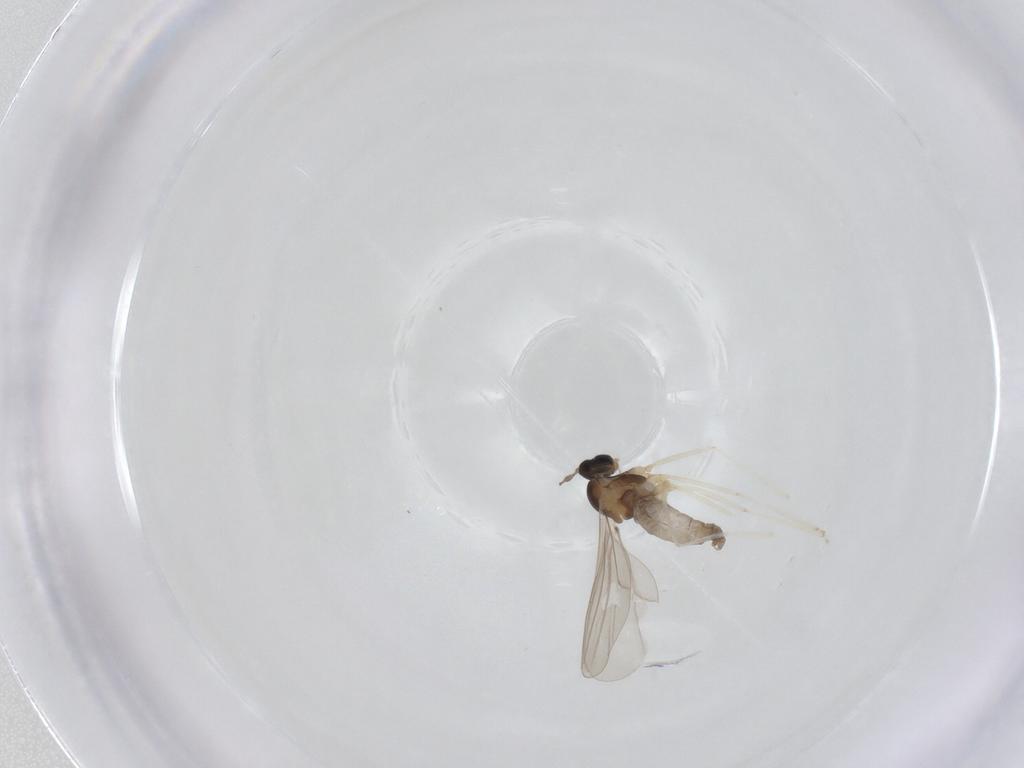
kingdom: Animalia
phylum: Arthropoda
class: Insecta
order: Diptera
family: Cecidomyiidae
